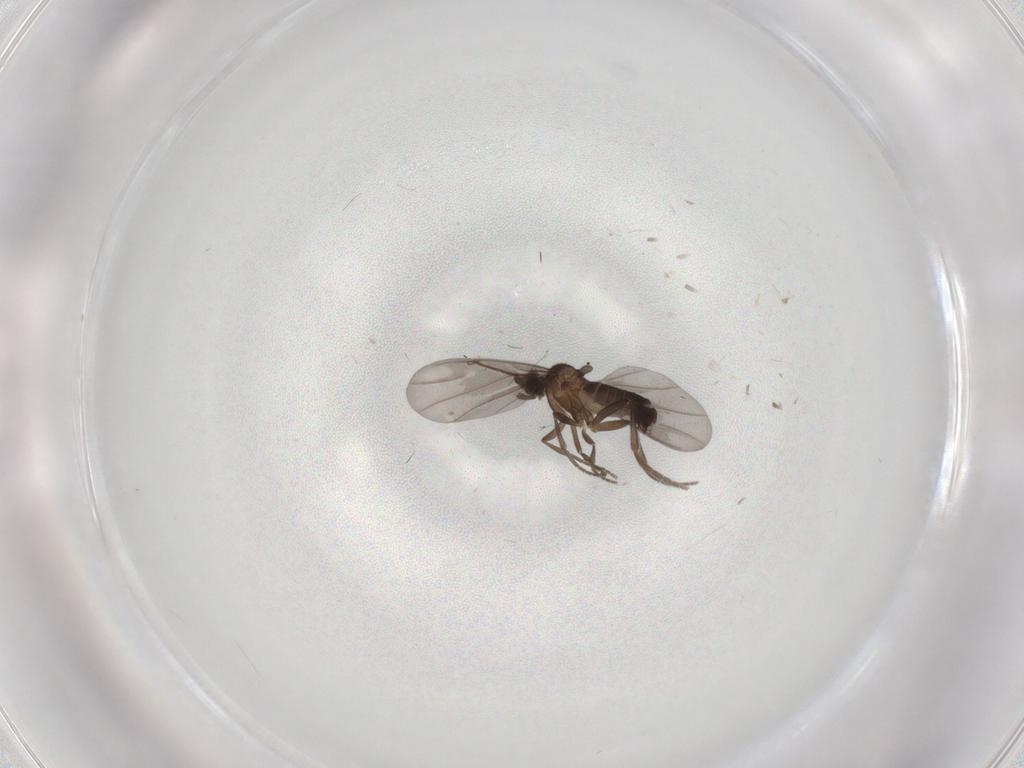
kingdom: Animalia
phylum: Arthropoda
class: Insecta
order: Diptera
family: Phoridae
